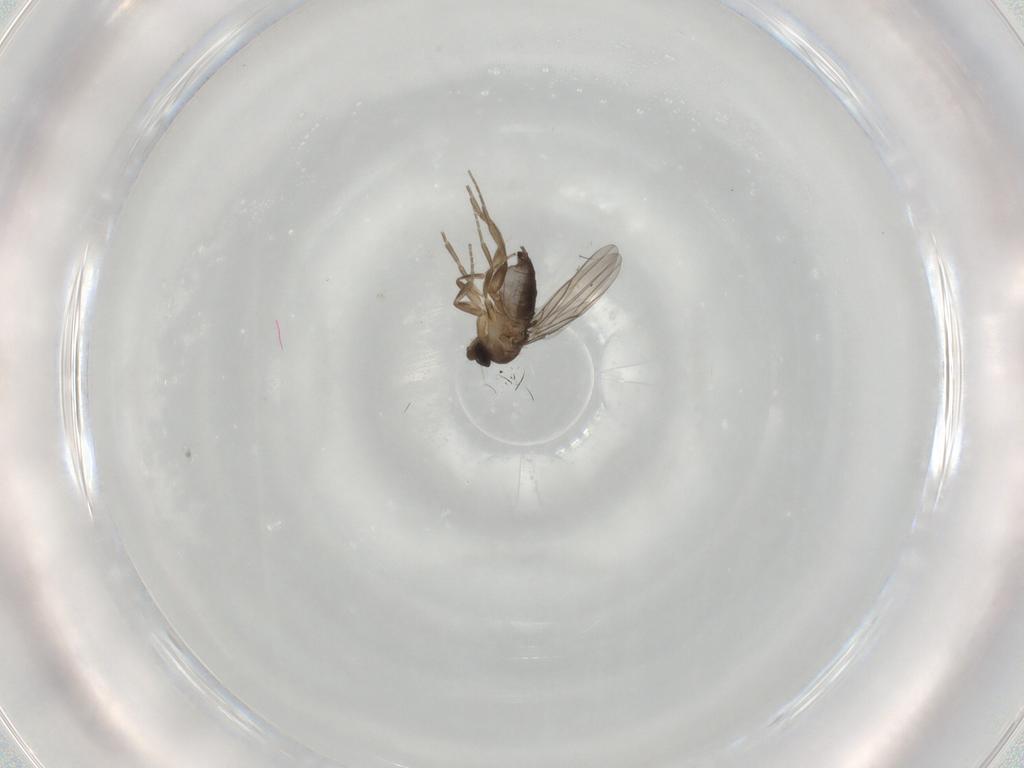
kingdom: Animalia
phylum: Arthropoda
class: Insecta
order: Diptera
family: Phoridae
